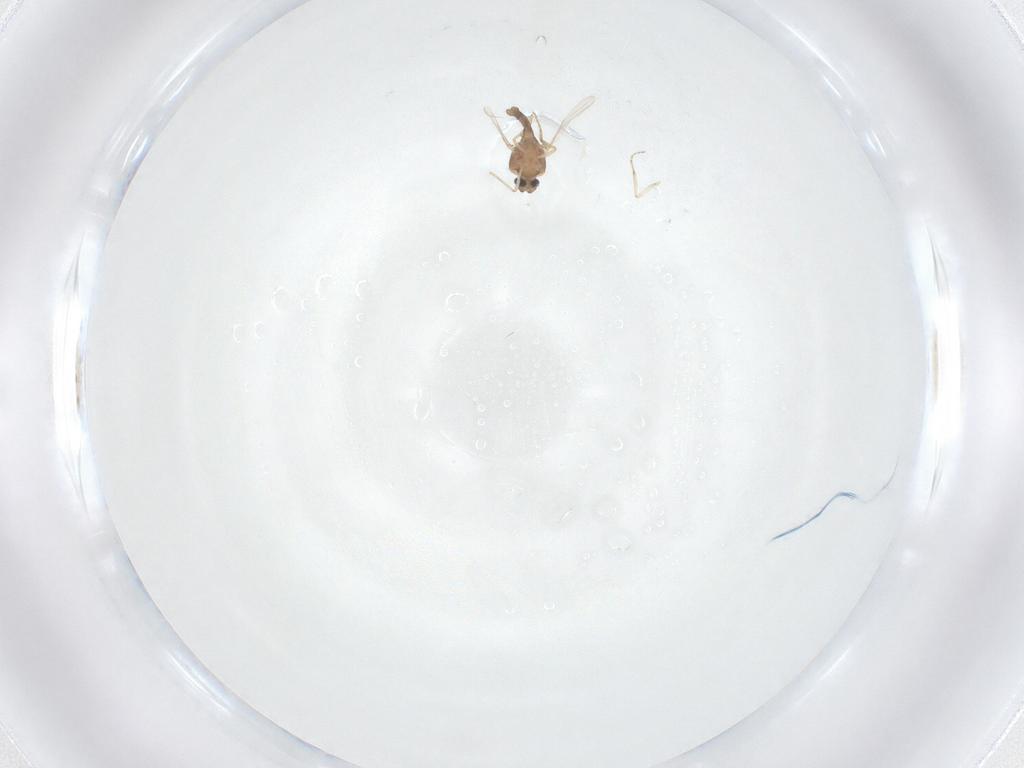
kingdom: Animalia
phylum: Arthropoda
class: Insecta
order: Diptera
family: Ceratopogonidae
